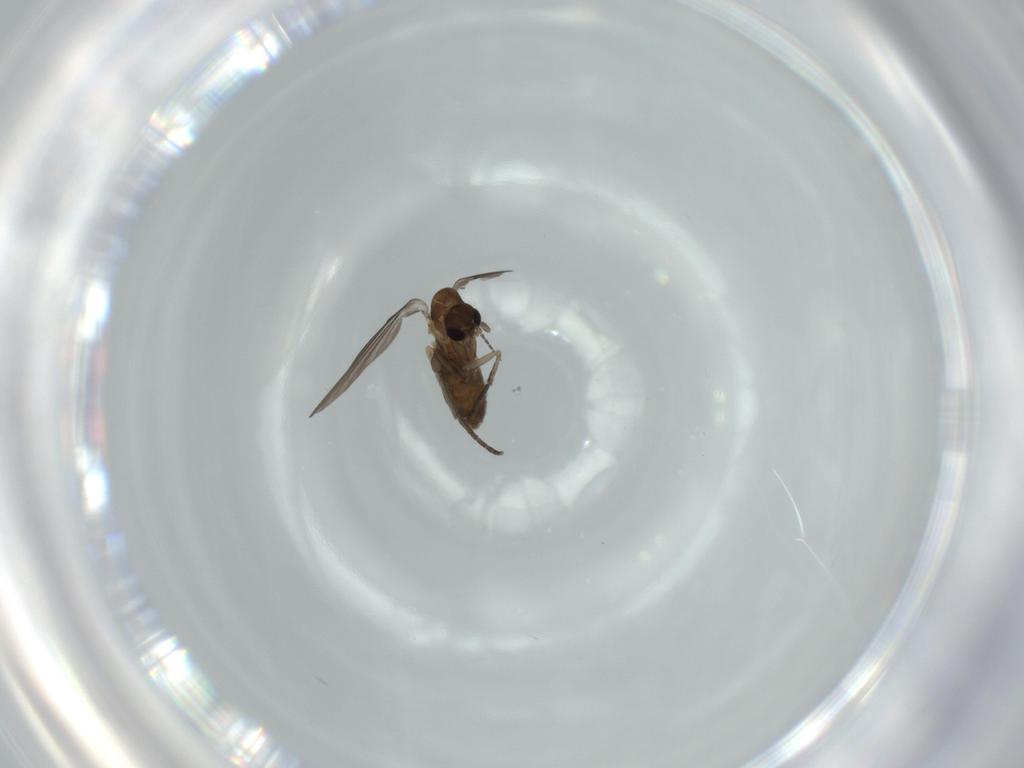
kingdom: Animalia
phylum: Arthropoda
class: Insecta
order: Diptera
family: Psychodidae
